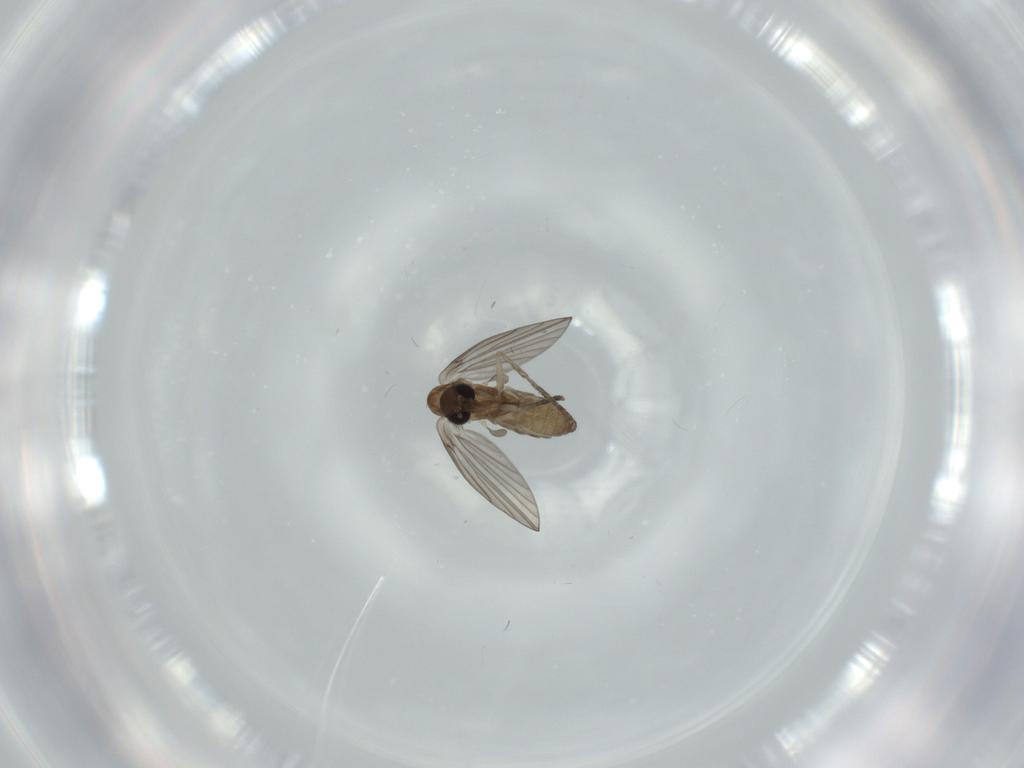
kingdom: Animalia
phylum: Arthropoda
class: Insecta
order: Diptera
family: Psychodidae
